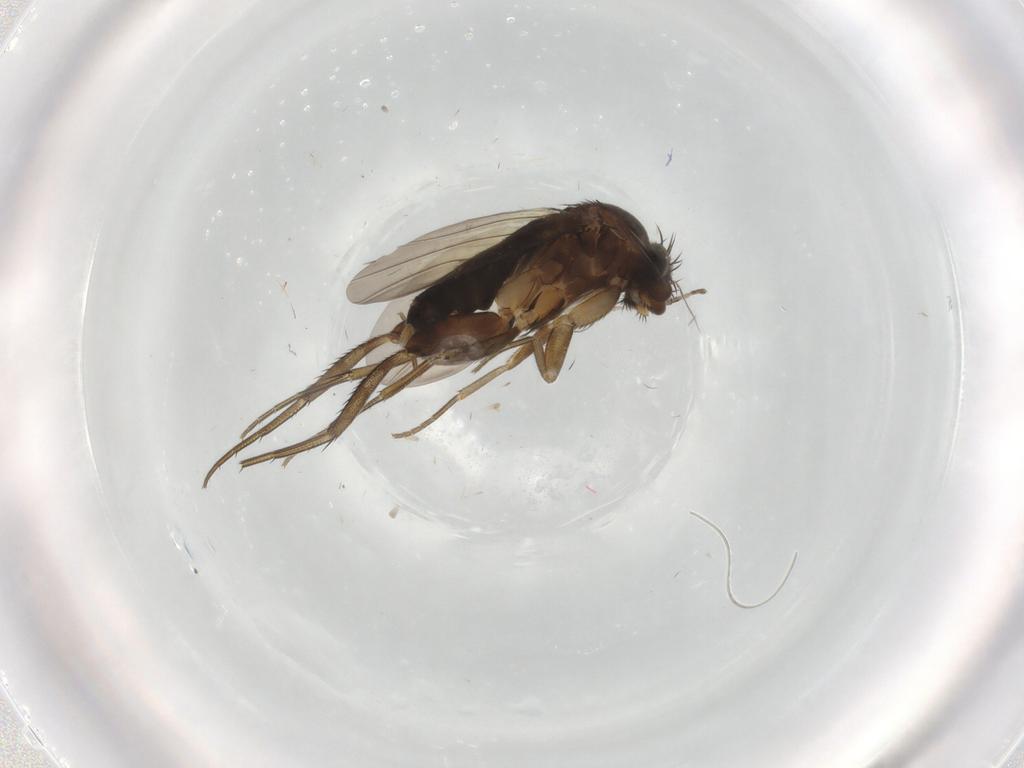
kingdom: Animalia
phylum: Arthropoda
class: Insecta
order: Diptera
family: Phoridae
